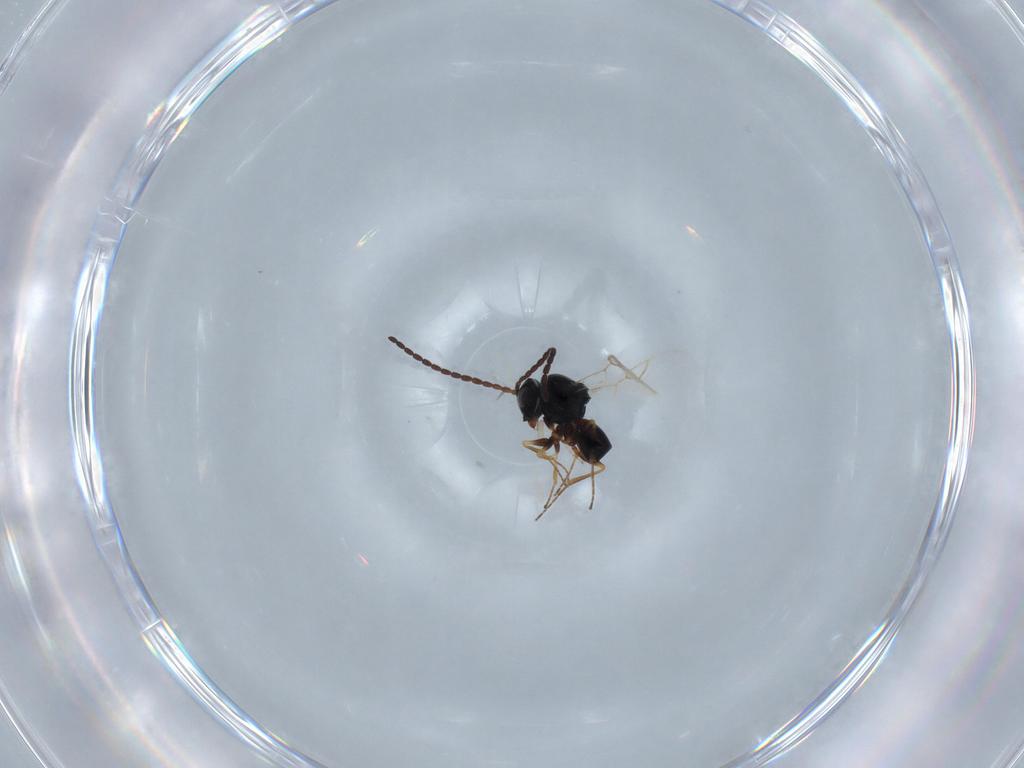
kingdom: Animalia
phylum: Arthropoda
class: Insecta
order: Hymenoptera
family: Figitidae
